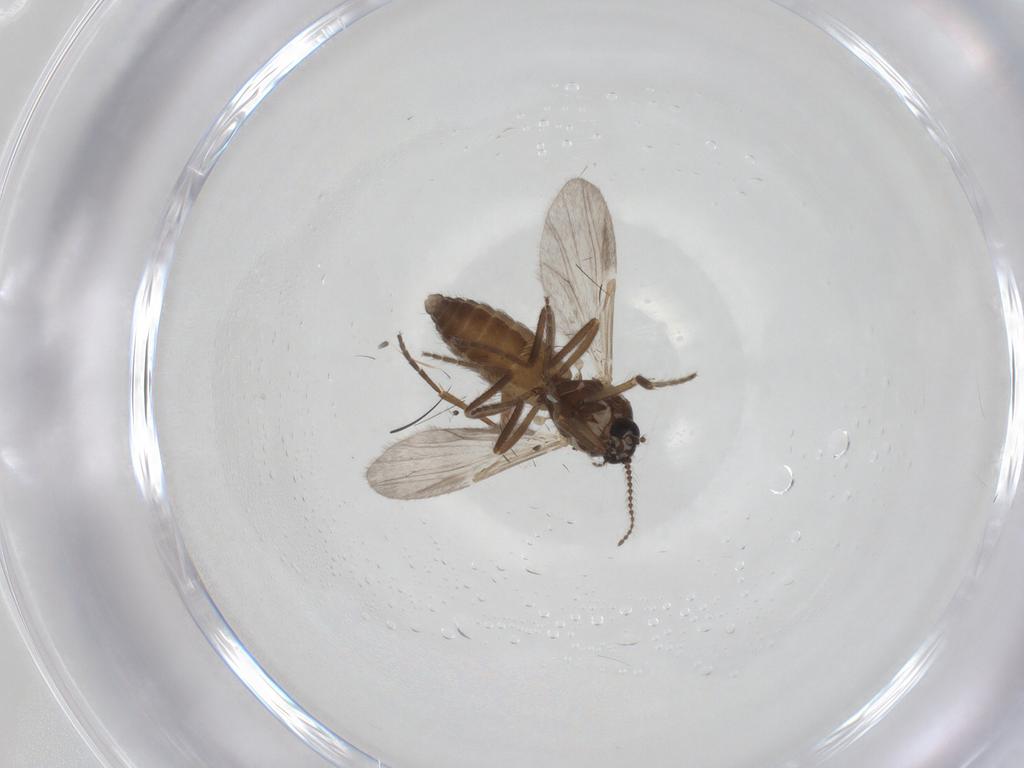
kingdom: Animalia
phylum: Arthropoda
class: Insecta
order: Diptera
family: Ceratopogonidae
